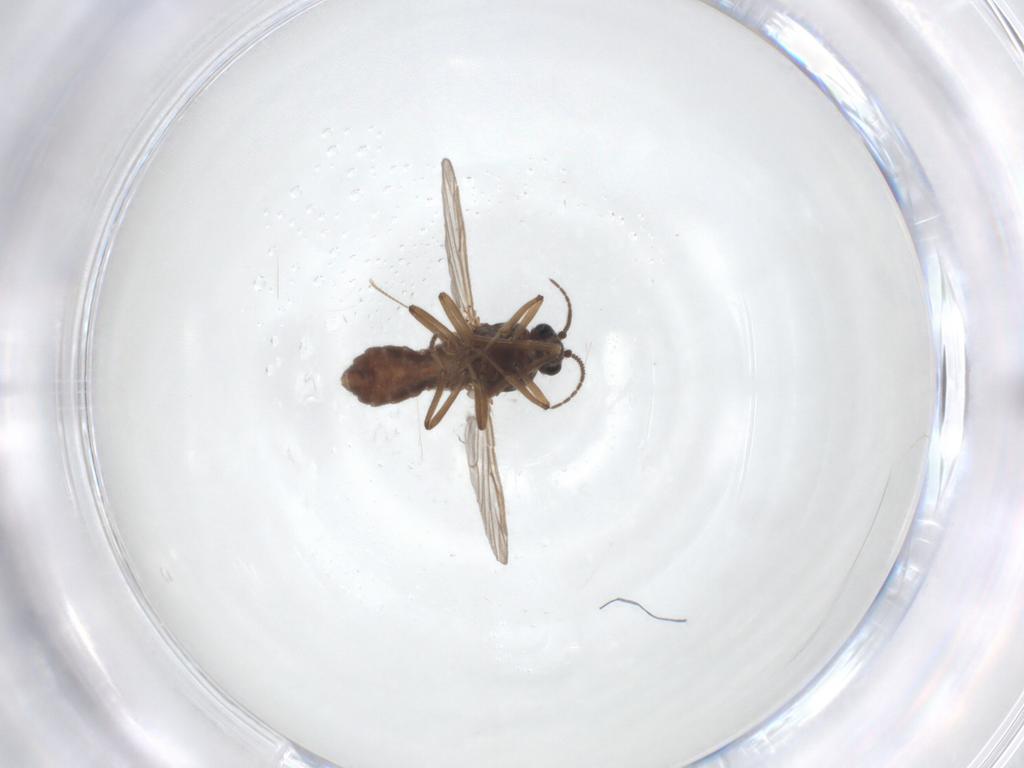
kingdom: Animalia
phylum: Arthropoda
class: Insecta
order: Diptera
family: Ceratopogonidae
